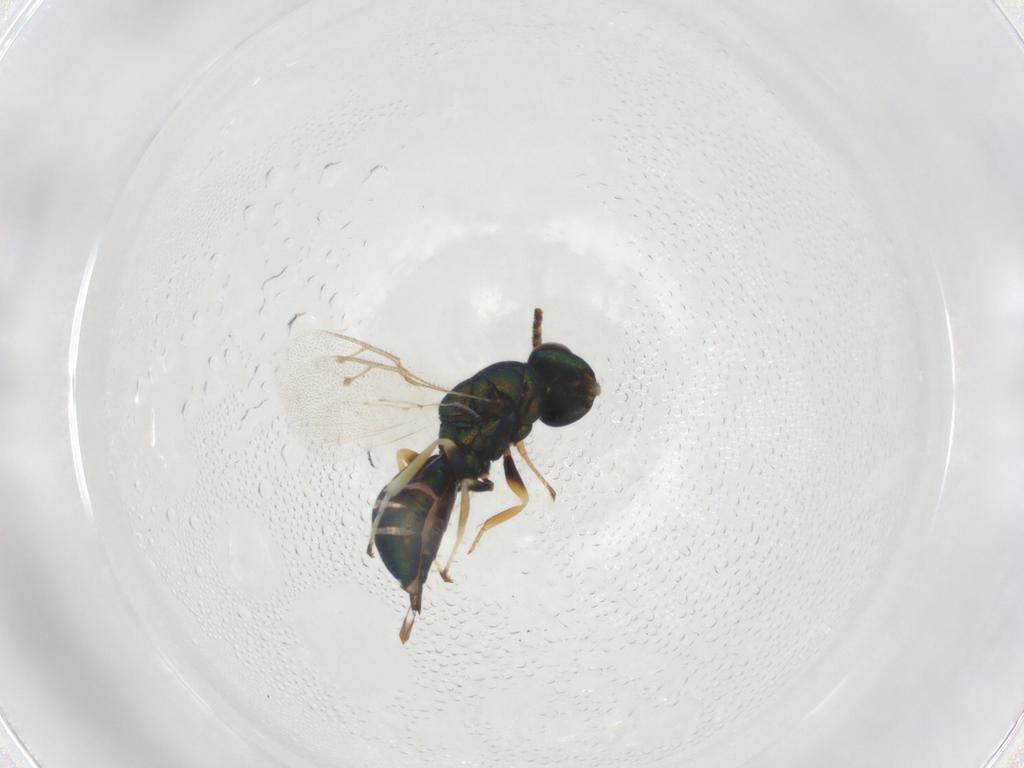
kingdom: Animalia
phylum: Arthropoda
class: Insecta
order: Hymenoptera
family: Pteromalidae
